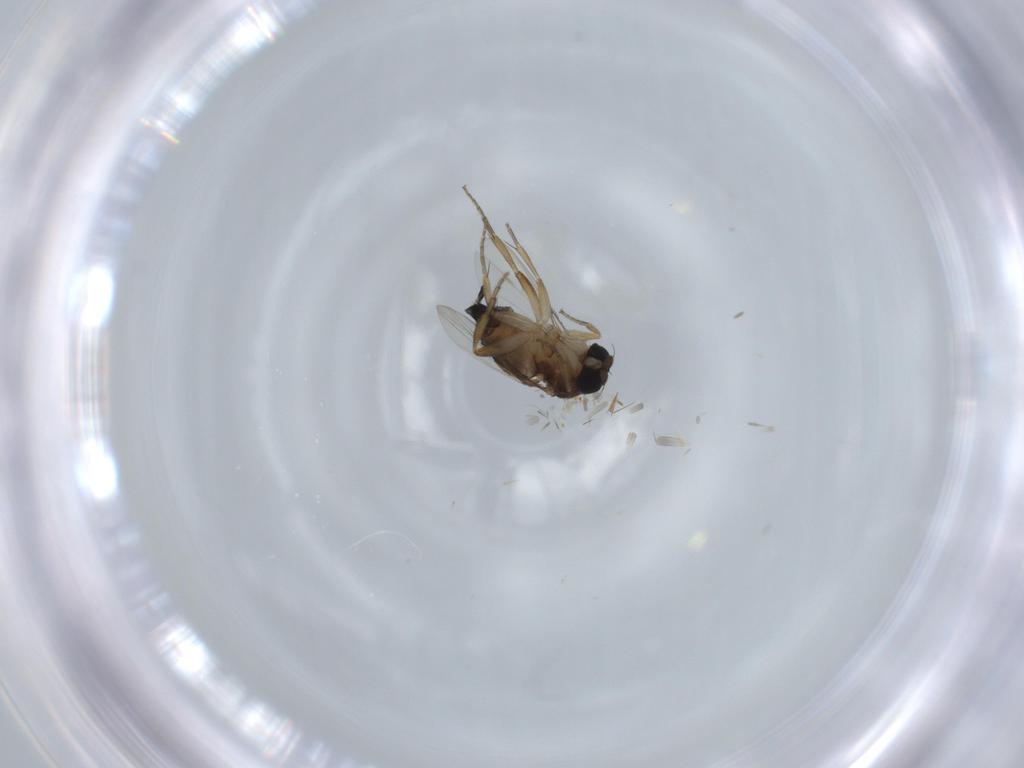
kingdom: Animalia
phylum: Arthropoda
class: Insecta
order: Diptera
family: Phoridae
